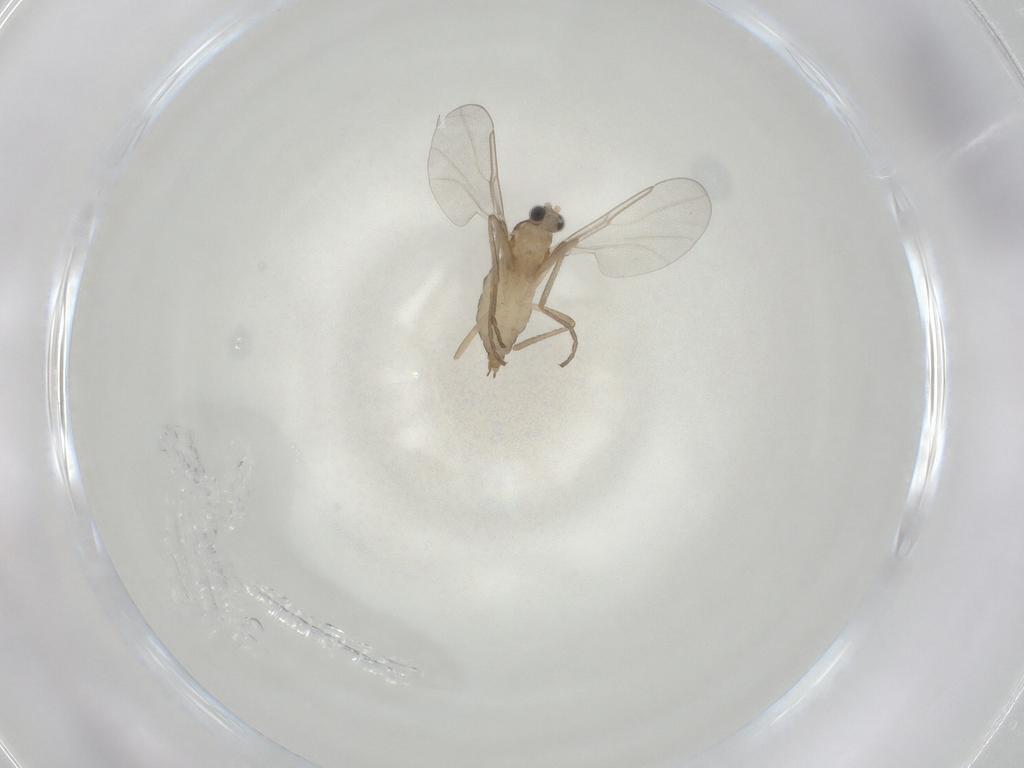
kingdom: Animalia
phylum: Arthropoda
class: Insecta
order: Diptera
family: Cecidomyiidae
